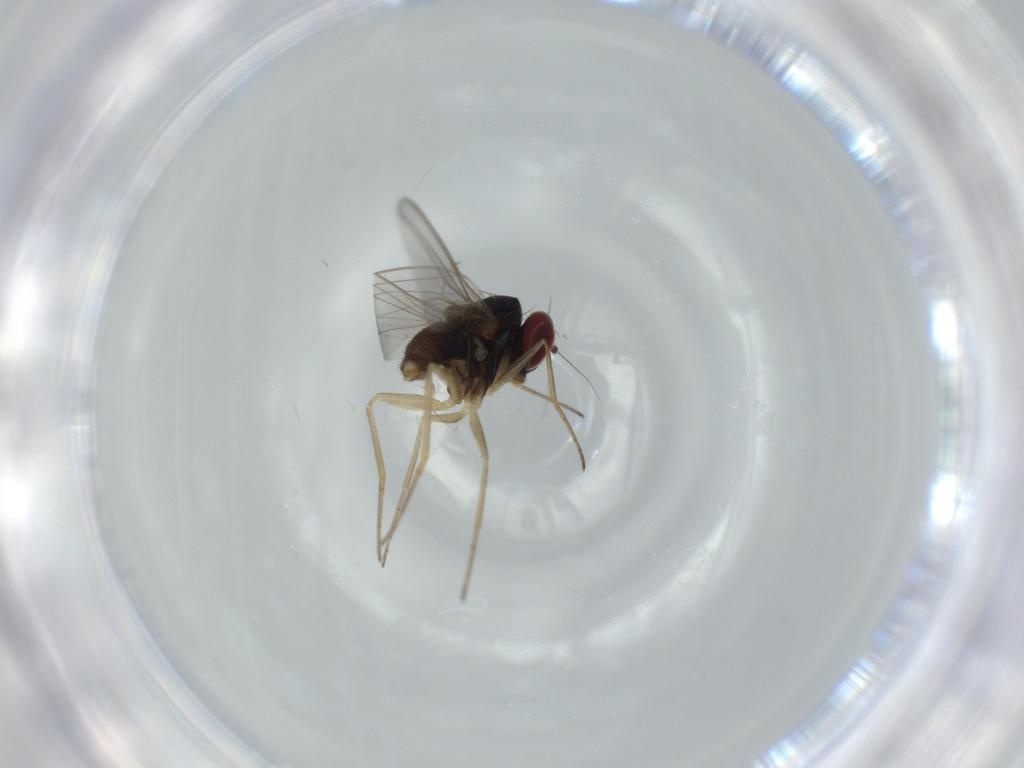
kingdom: Animalia
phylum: Arthropoda
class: Insecta
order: Diptera
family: Dolichopodidae
